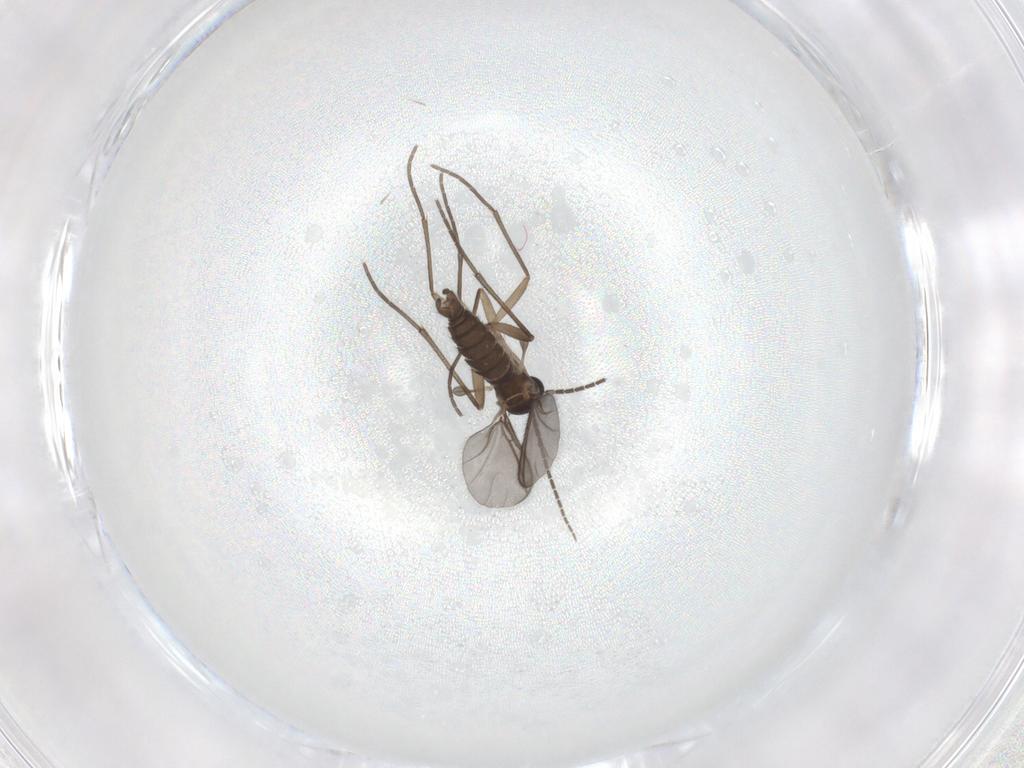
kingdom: Animalia
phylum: Arthropoda
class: Insecta
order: Diptera
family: Sciaridae
